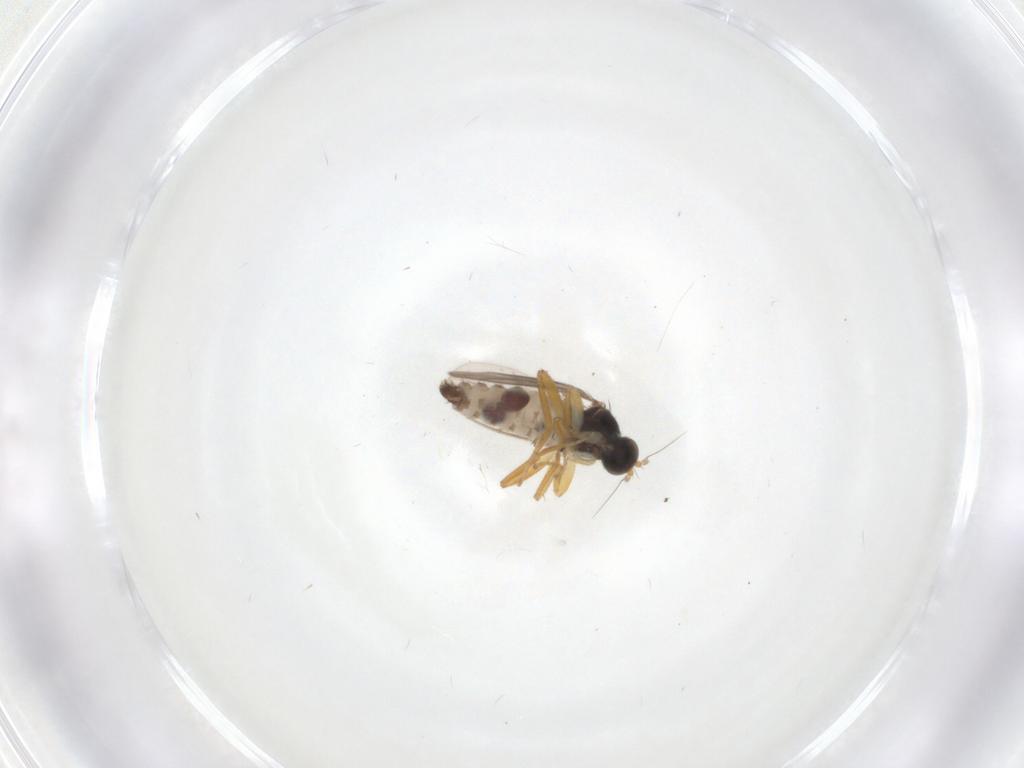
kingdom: Animalia
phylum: Arthropoda
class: Insecta
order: Diptera
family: Hybotidae
